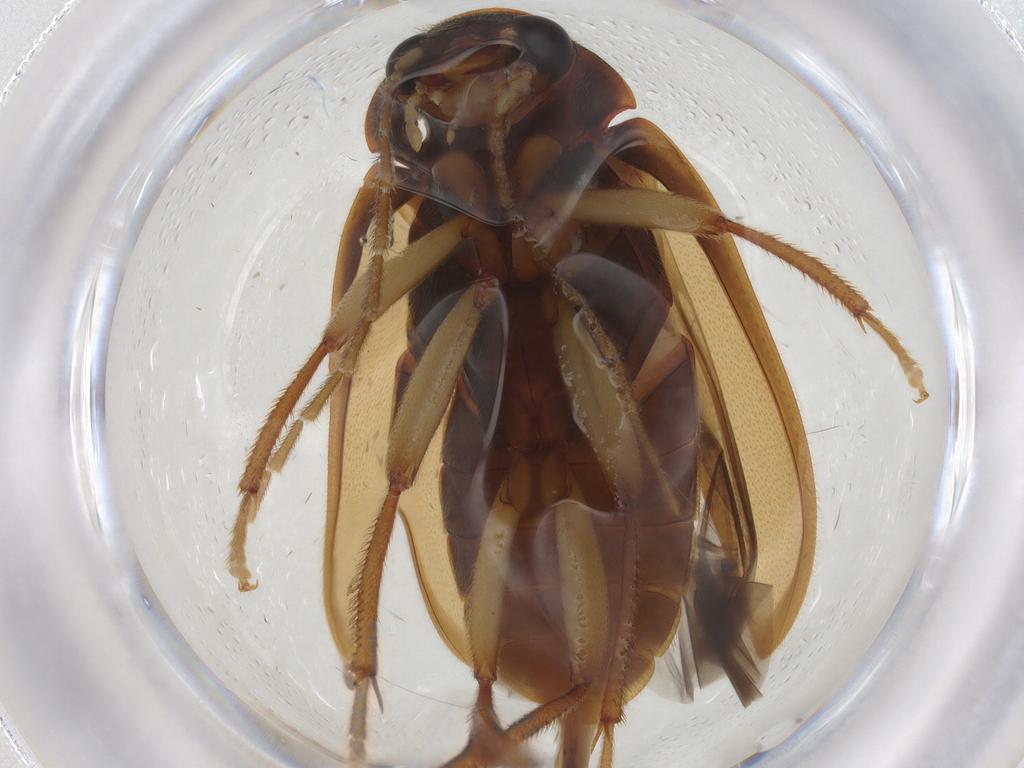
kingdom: Animalia
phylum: Arthropoda
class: Insecta
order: Coleoptera
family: Ptilodactylidae
